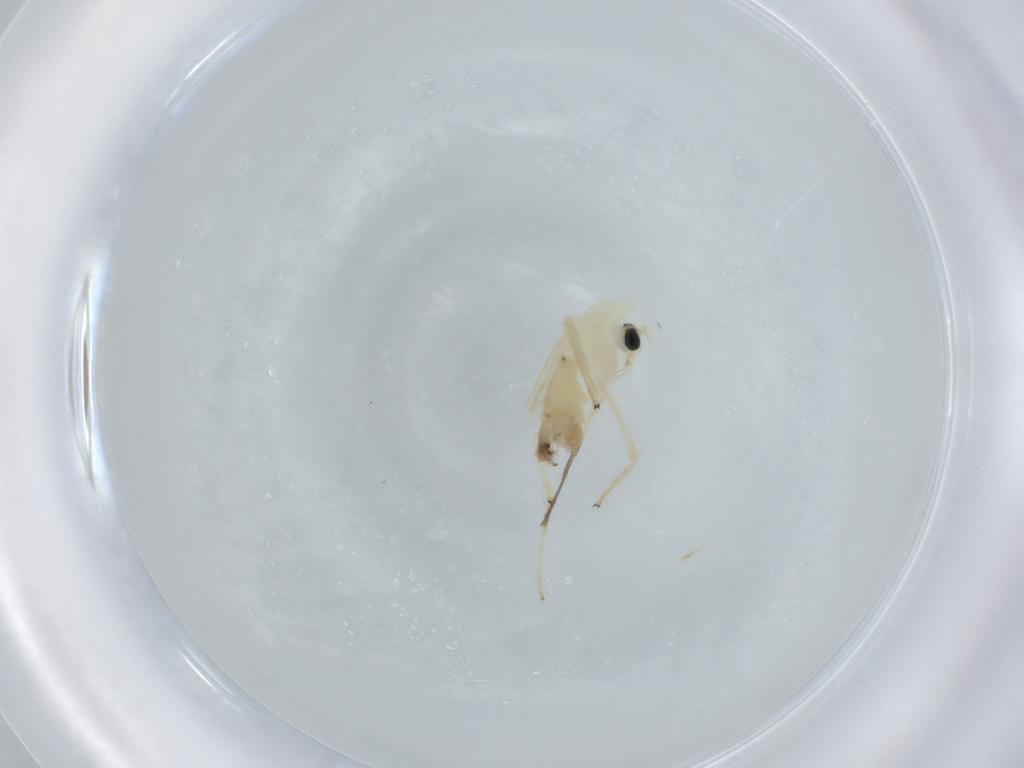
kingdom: Animalia
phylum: Arthropoda
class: Insecta
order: Diptera
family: Chironomidae
